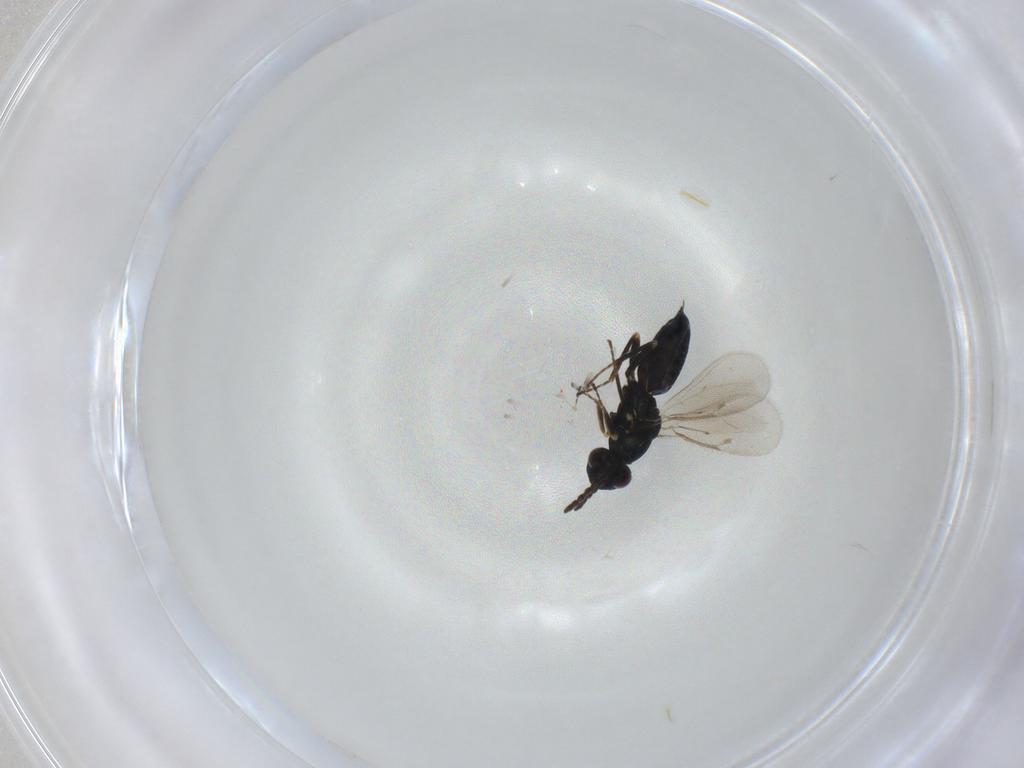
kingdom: Animalia
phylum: Arthropoda
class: Insecta
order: Hymenoptera
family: Eulophidae
